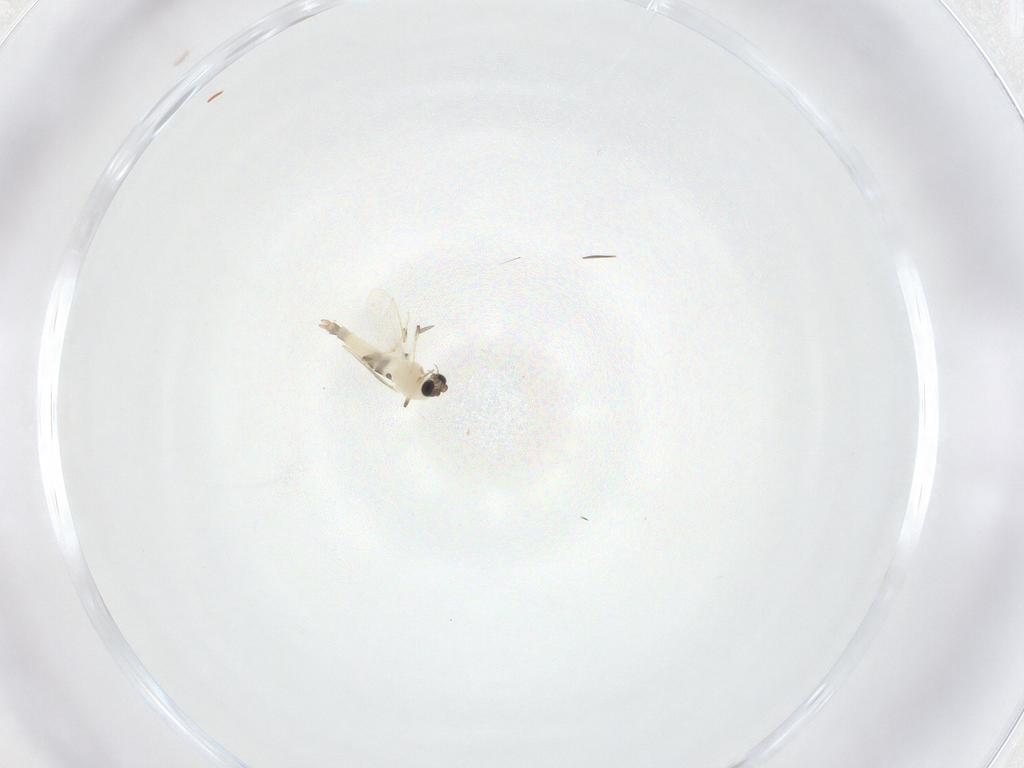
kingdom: Animalia
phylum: Arthropoda
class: Insecta
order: Diptera
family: Chironomidae
